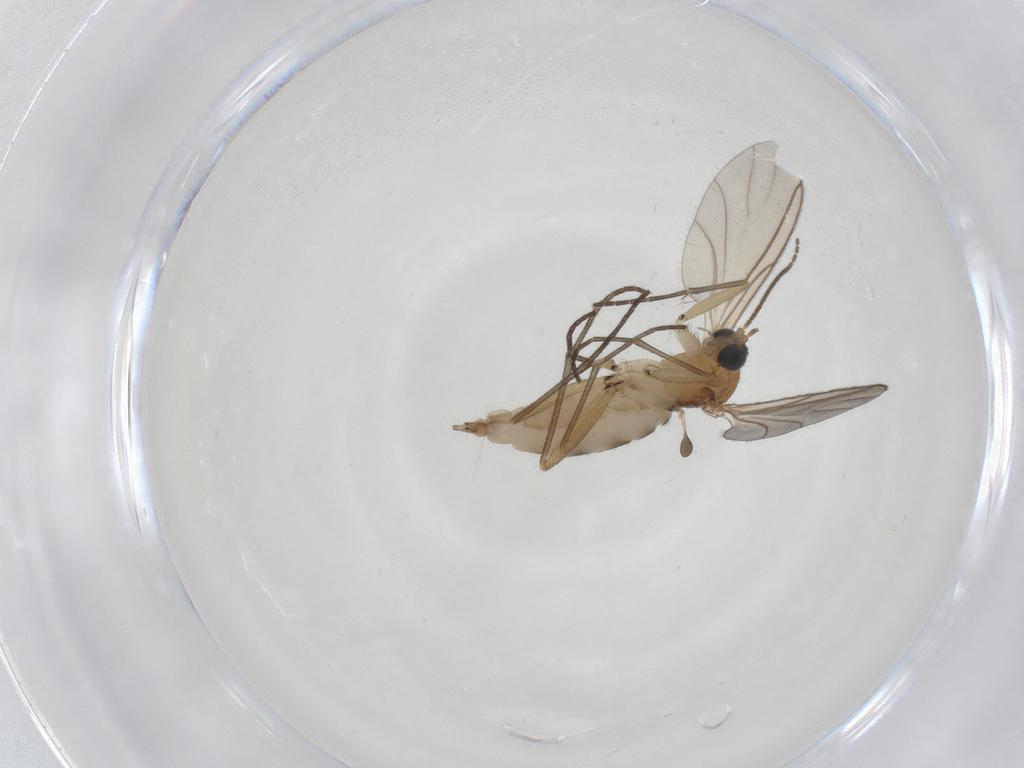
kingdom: Animalia
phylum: Arthropoda
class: Insecta
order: Diptera
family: Sciaridae
